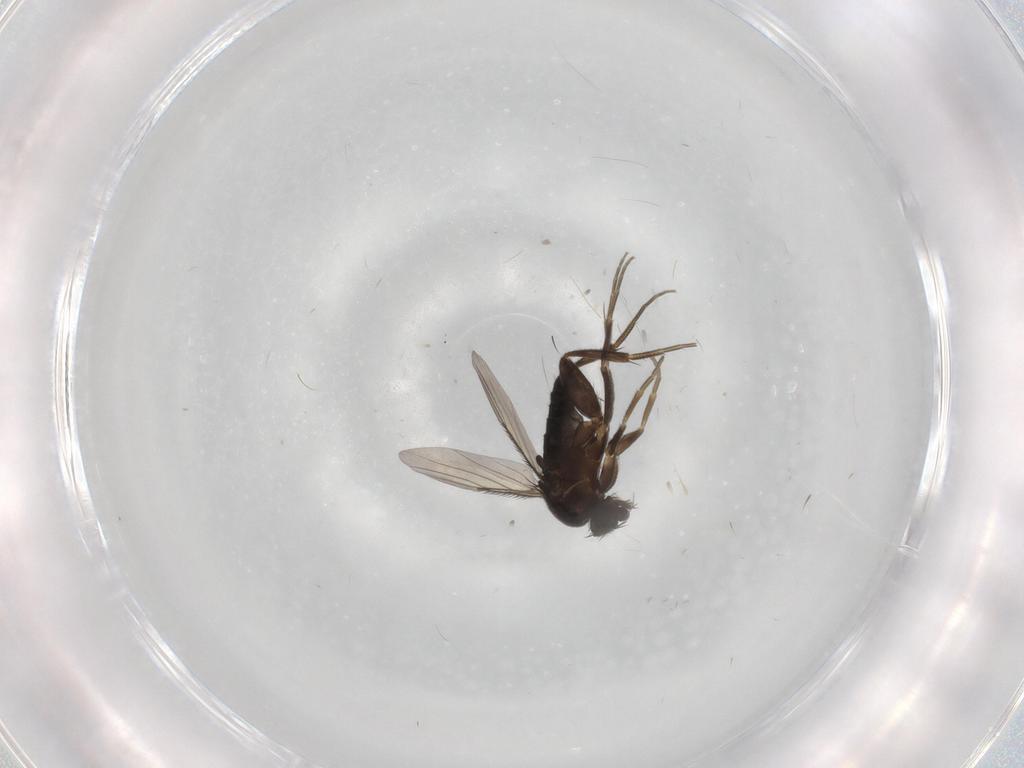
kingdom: Animalia
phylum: Arthropoda
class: Insecta
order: Diptera
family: Phoridae
